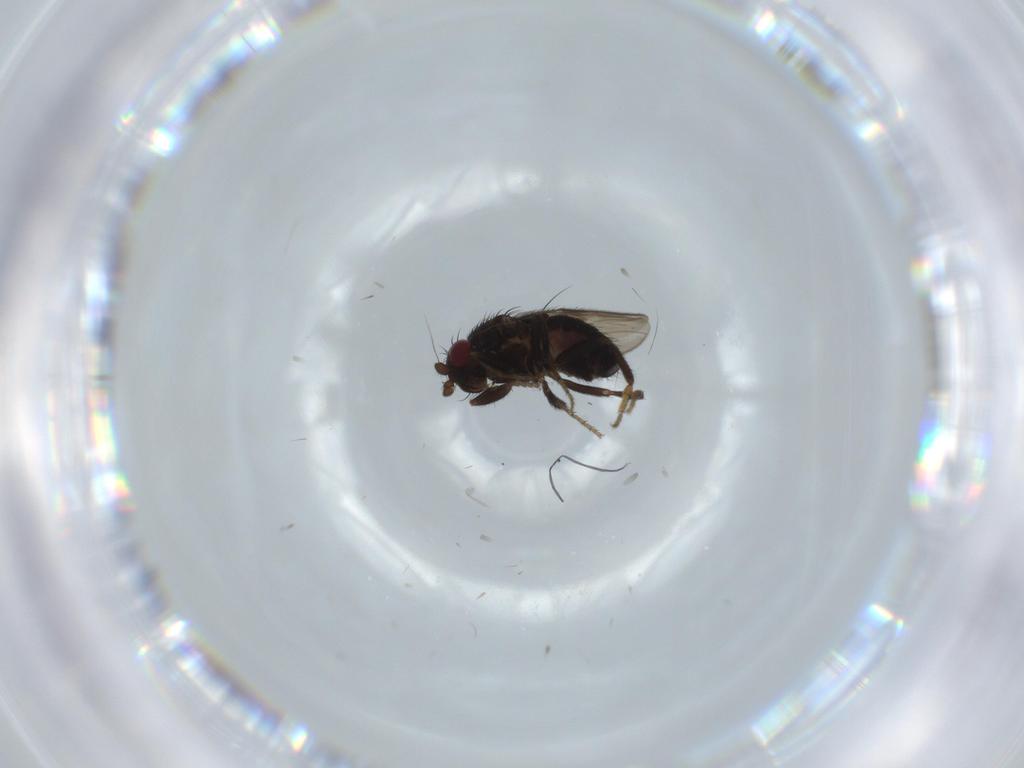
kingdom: Animalia
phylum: Arthropoda
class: Insecta
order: Diptera
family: Sphaeroceridae
